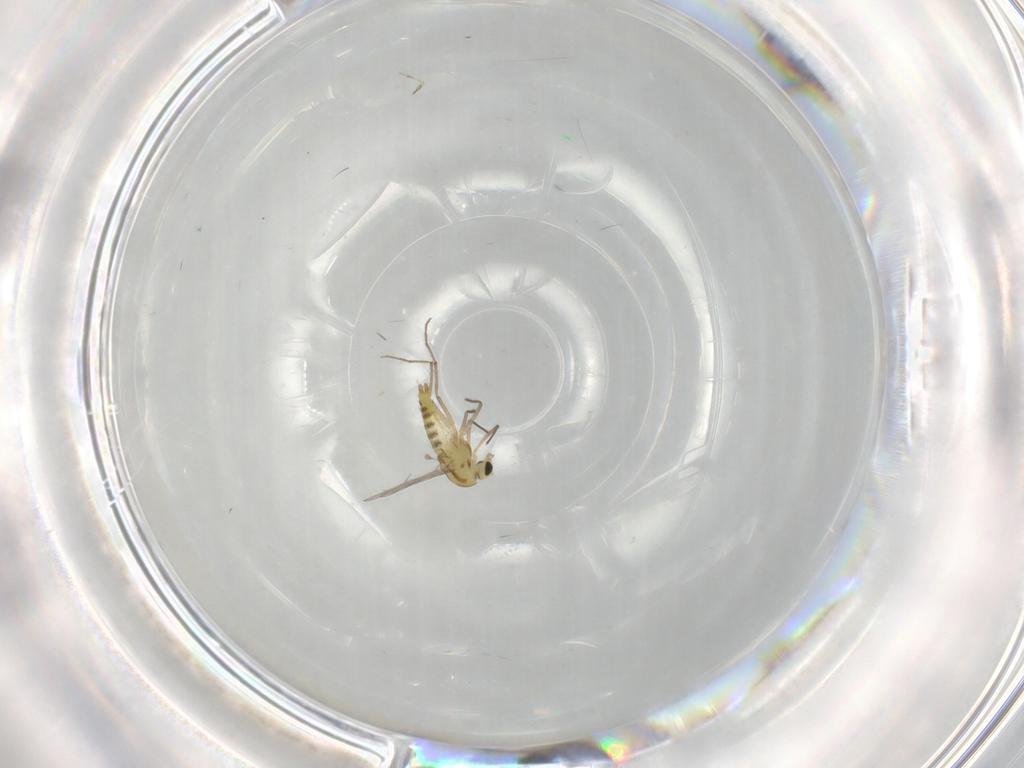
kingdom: Animalia
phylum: Arthropoda
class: Insecta
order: Diptera
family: Chironomidae
